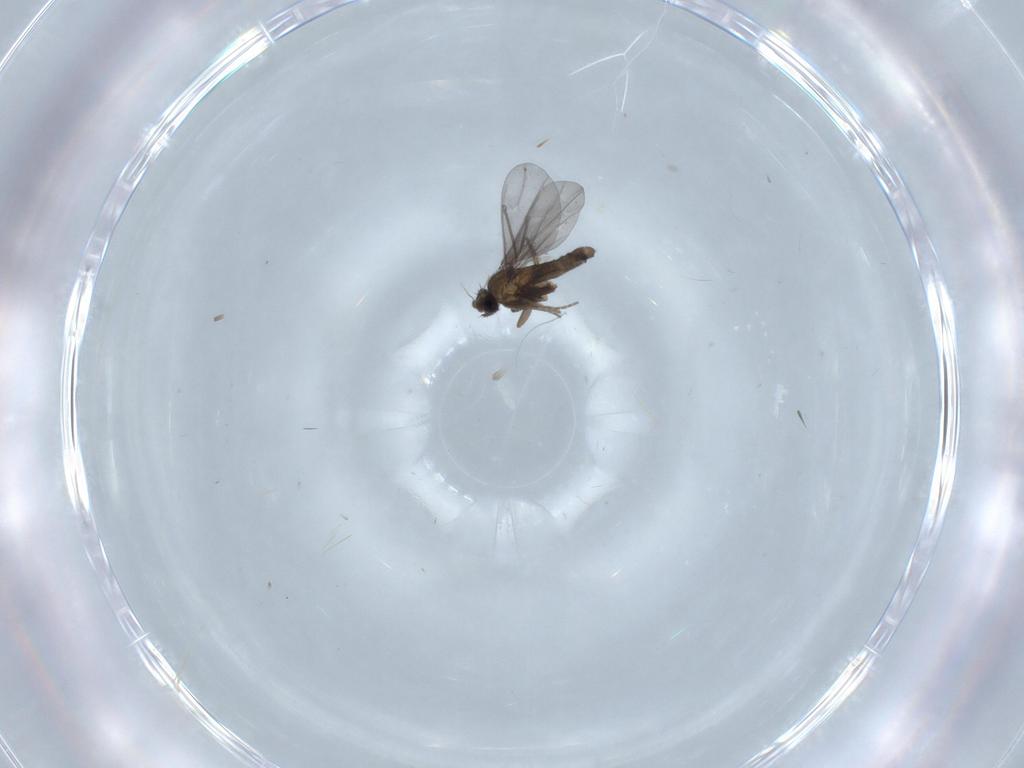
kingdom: Animalia
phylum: Arthropoda
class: Insecta
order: Diptera
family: Phoridae
